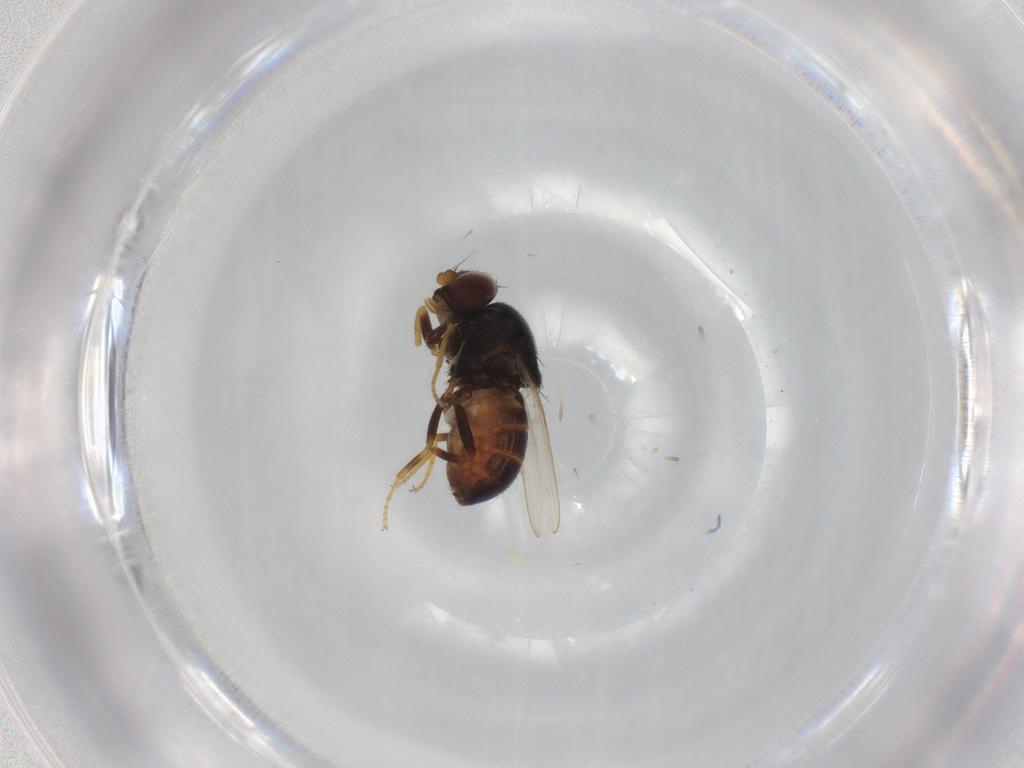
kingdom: Animalia
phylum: Arthropoda
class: Insecta
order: Diptera
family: Chloropidae
